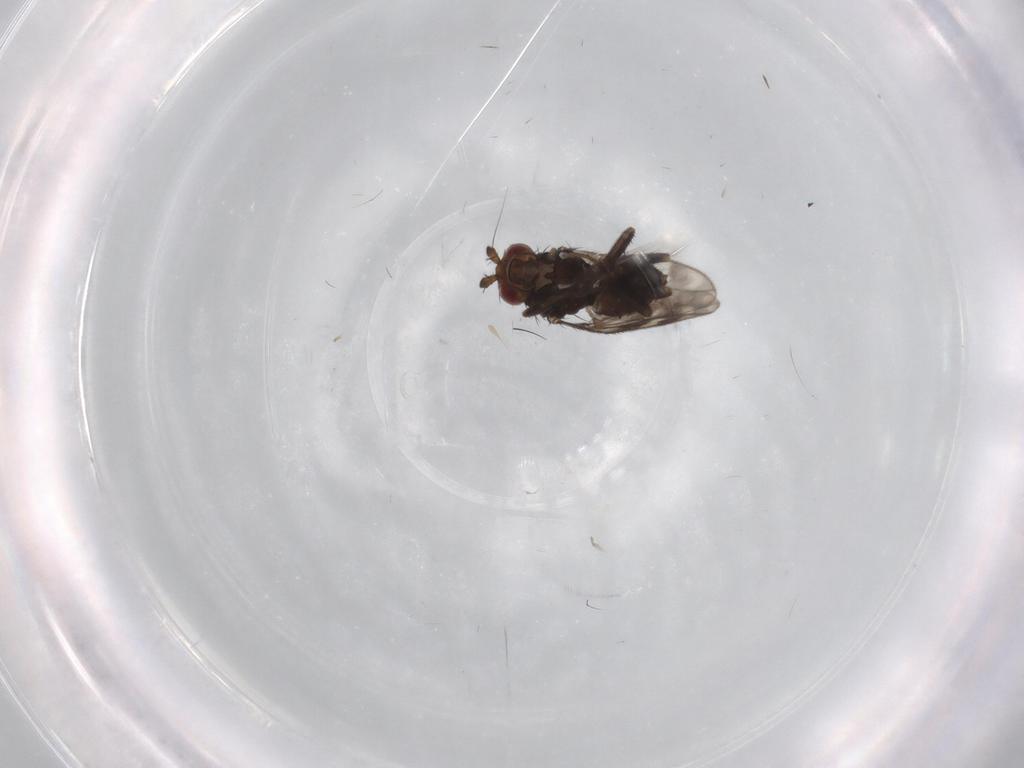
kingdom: Animalia
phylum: Arthropoda
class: Insecta
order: Diptera
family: Sphaeroceridae
